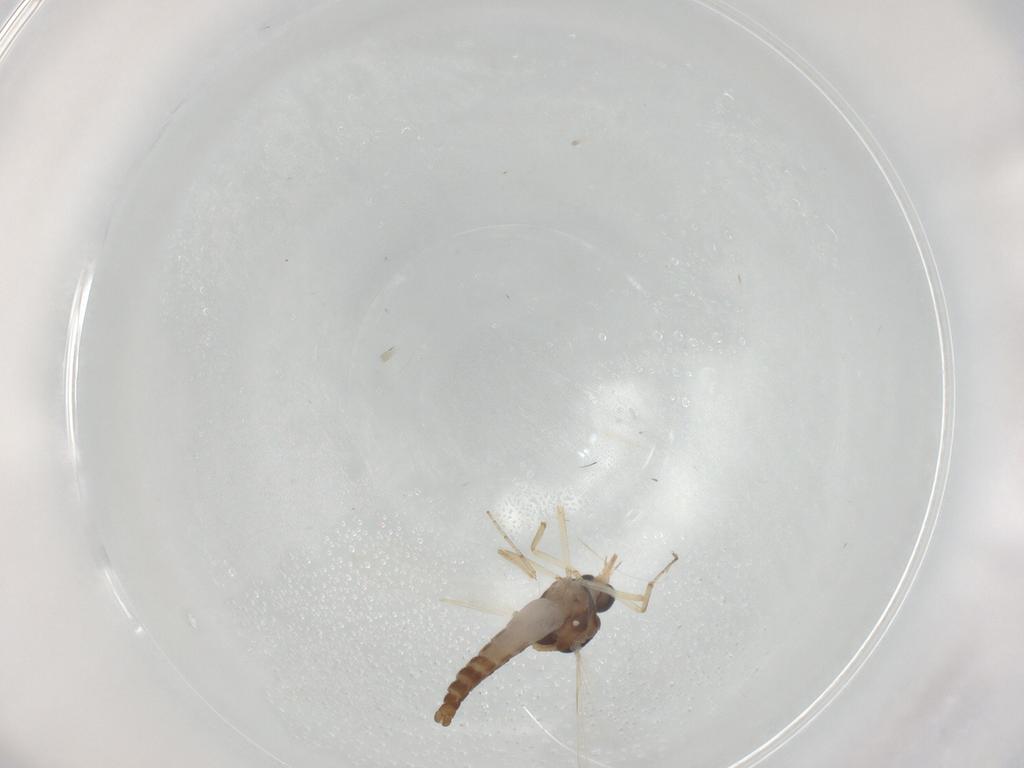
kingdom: Animalia
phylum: Arthropoda
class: Insecta
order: Diptera
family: Ceratopogonidae
